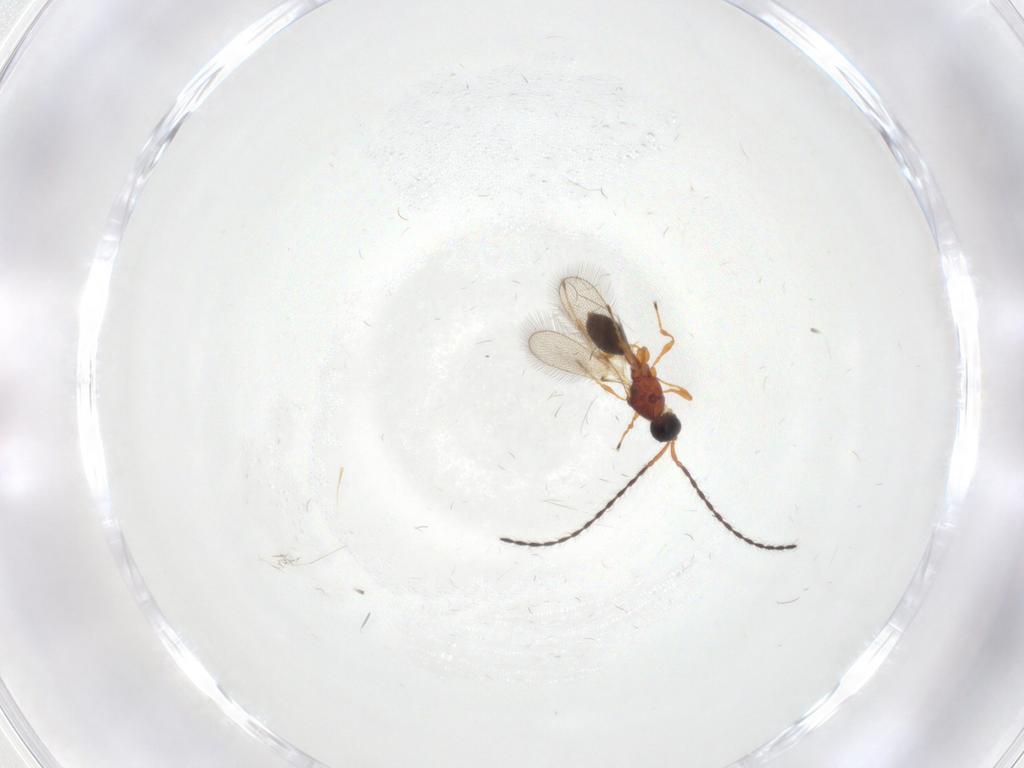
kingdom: Animalia
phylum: Arthropoda
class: Insecta
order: Hymenoptera
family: Diapriidae
